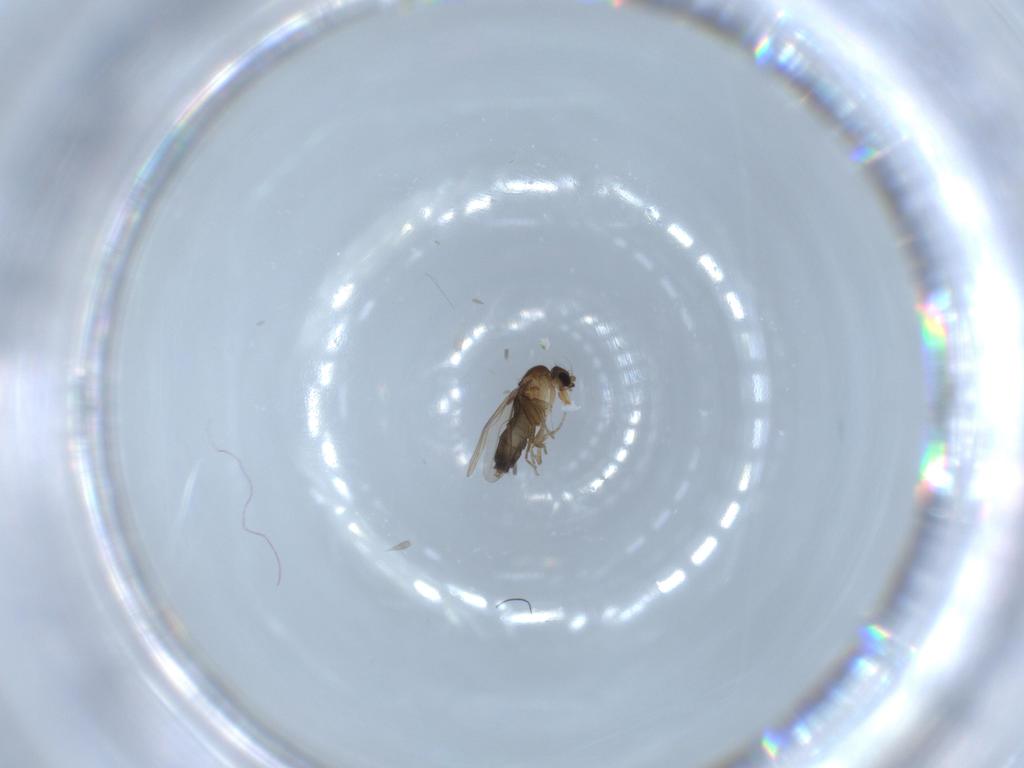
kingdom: Animalia
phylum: Arthropoda
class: Insecta
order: Diptera
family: Phoridae
